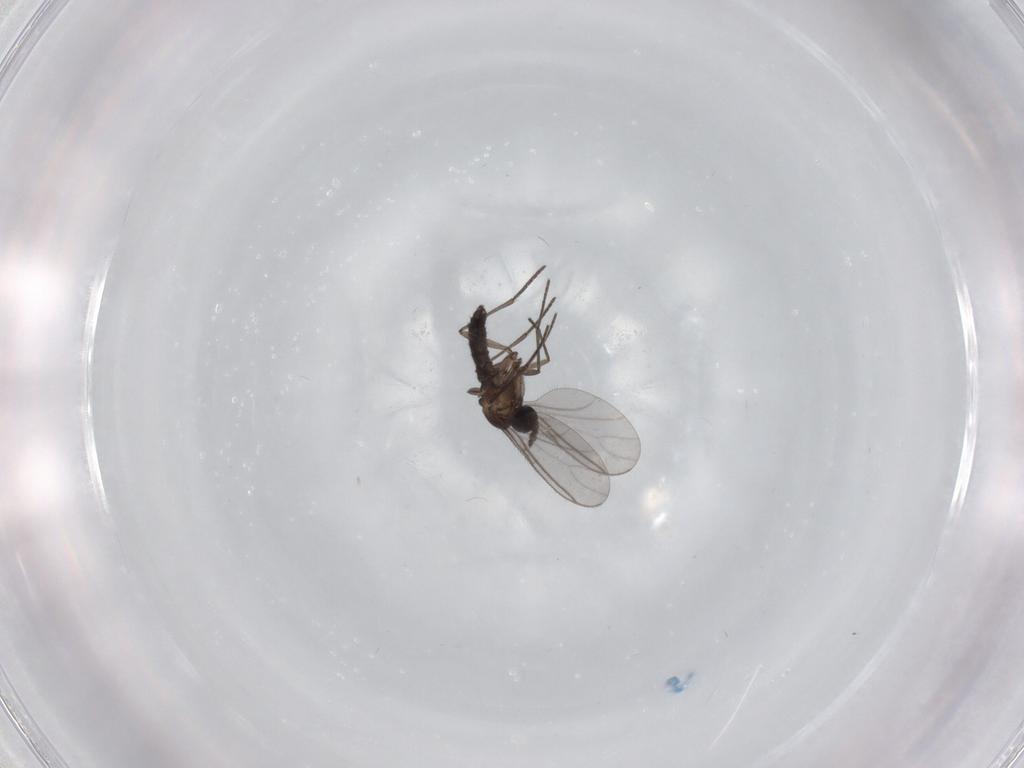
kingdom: Animalia
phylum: Arthropoda
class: Insecta
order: Diptera
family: Sciaridae
